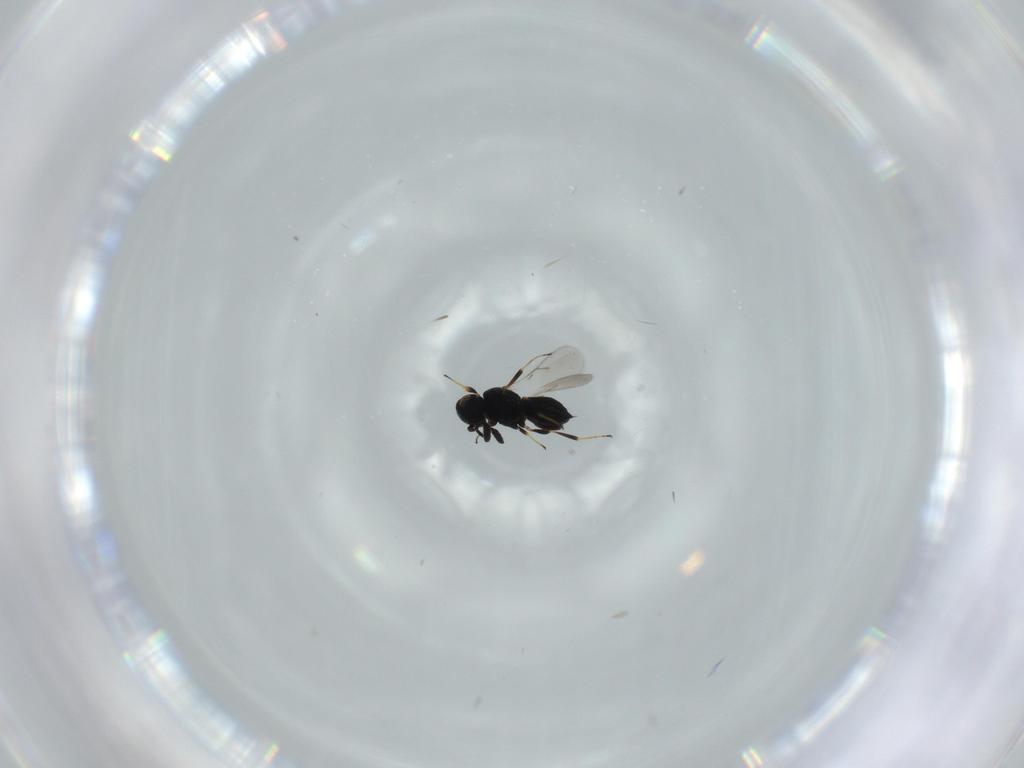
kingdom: Animalia
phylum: Arthropoda
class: Insecta
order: Hymenoptera
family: Scelionidae
